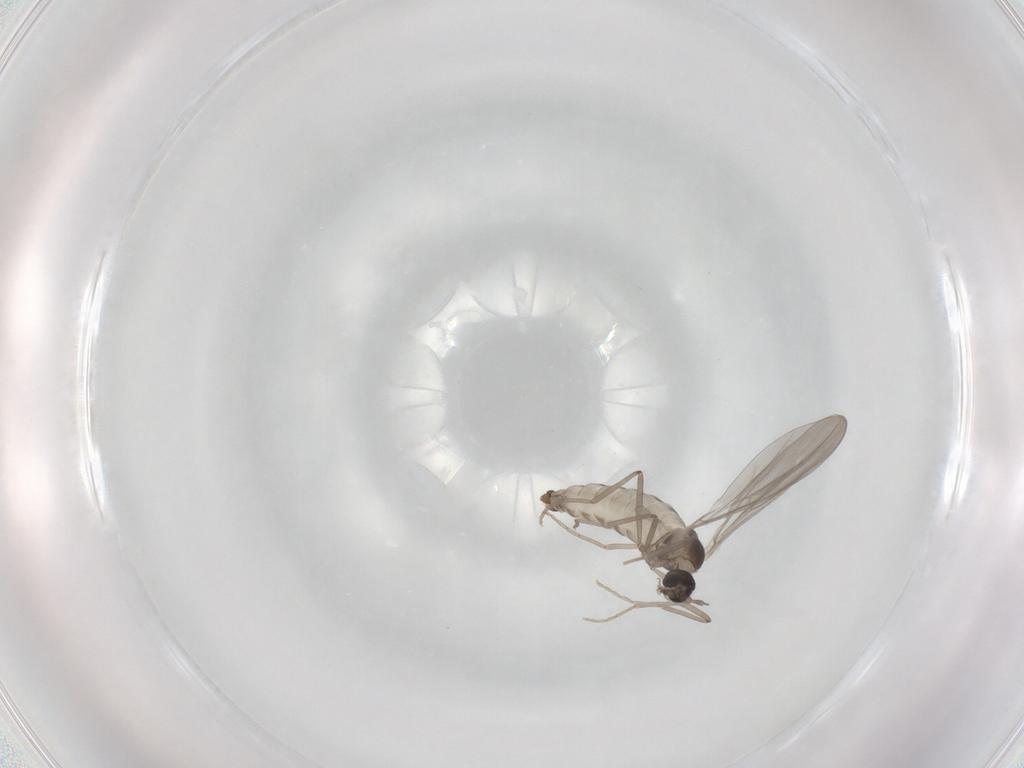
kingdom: Animalia
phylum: Arthropoda
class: Insecta
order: Diptera
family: Cecidomyiidae
